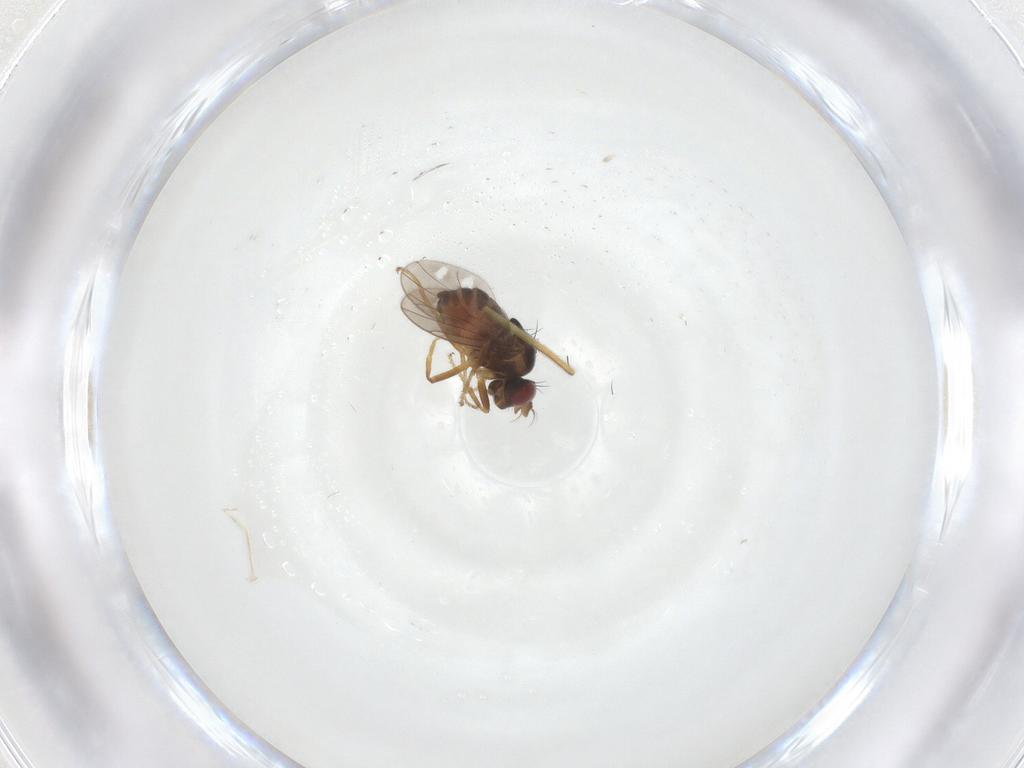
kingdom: Animalia
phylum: Arthropoda
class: Insecta
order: Diptera
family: Ephydridae
